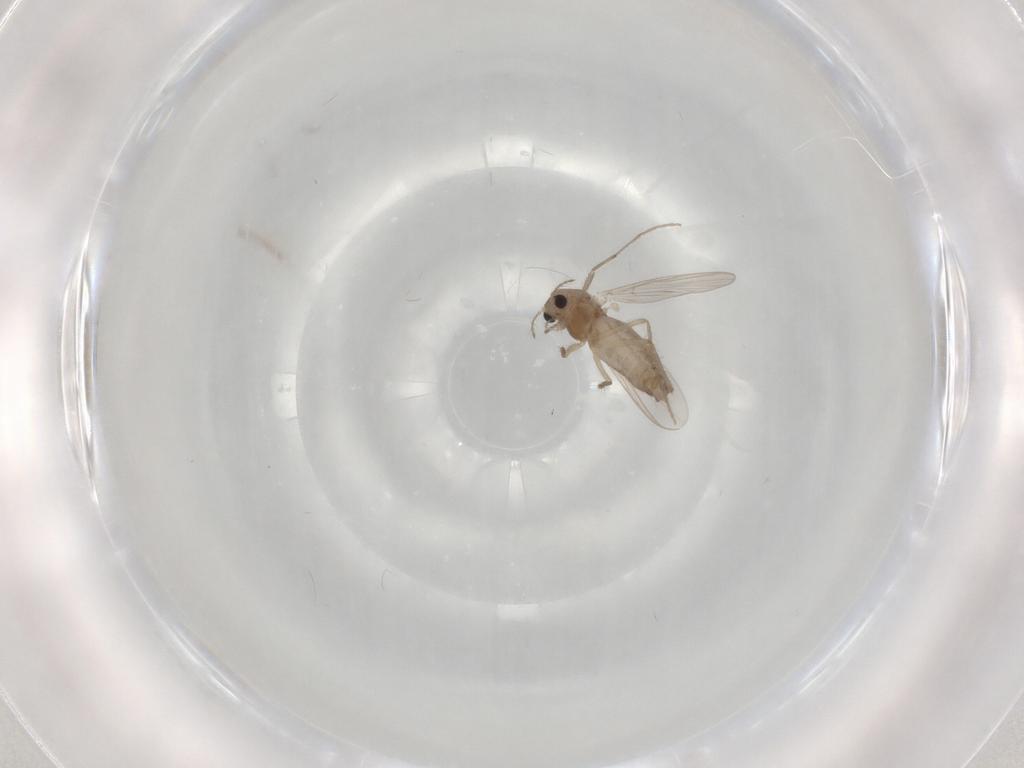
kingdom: Animalia
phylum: Arthropoda
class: Insecta
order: Diptera
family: Chironomidae
